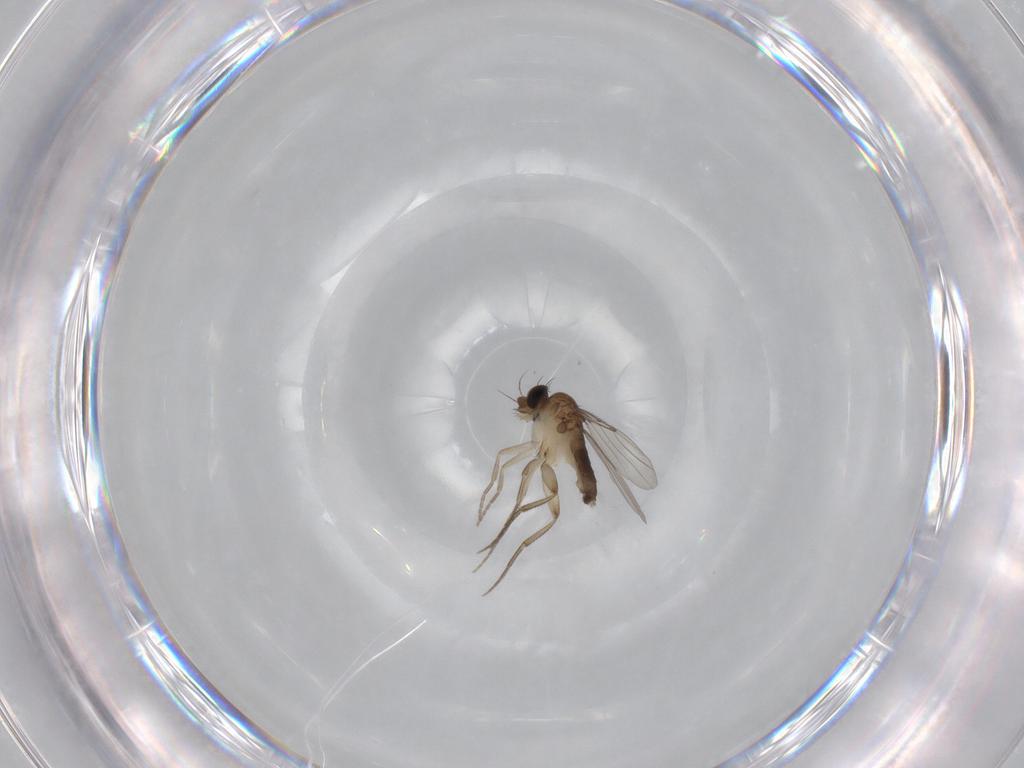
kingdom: Animalia
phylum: Arthropoda
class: Insecta
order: Diptera
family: Phoridae
